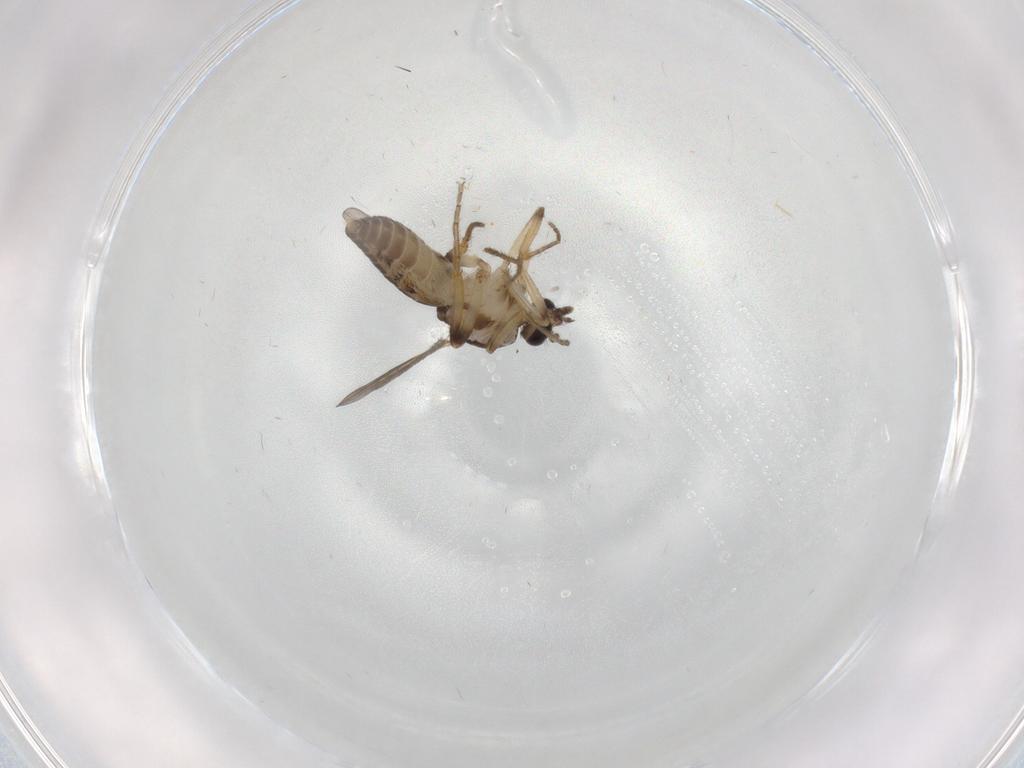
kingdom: Animalia
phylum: Arthropoda
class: Insecta
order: Diptera
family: Ceratopogonidae
